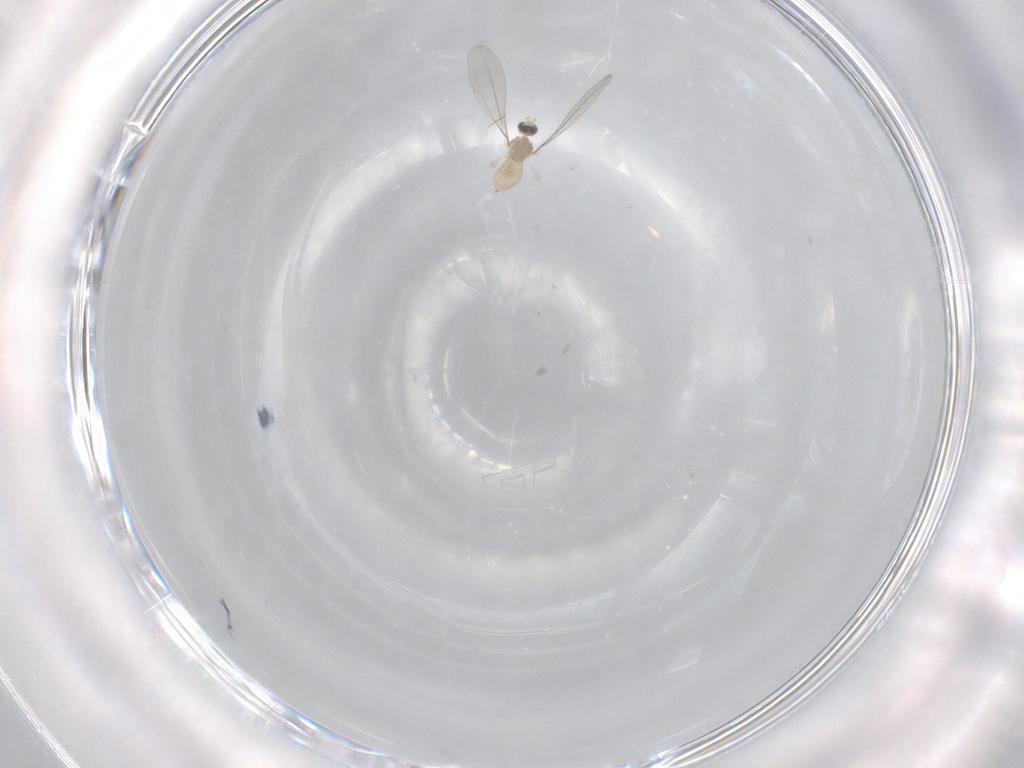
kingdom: Animalia
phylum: Arthropoda
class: Insecta
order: Diptera
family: Cecidomyiidae
